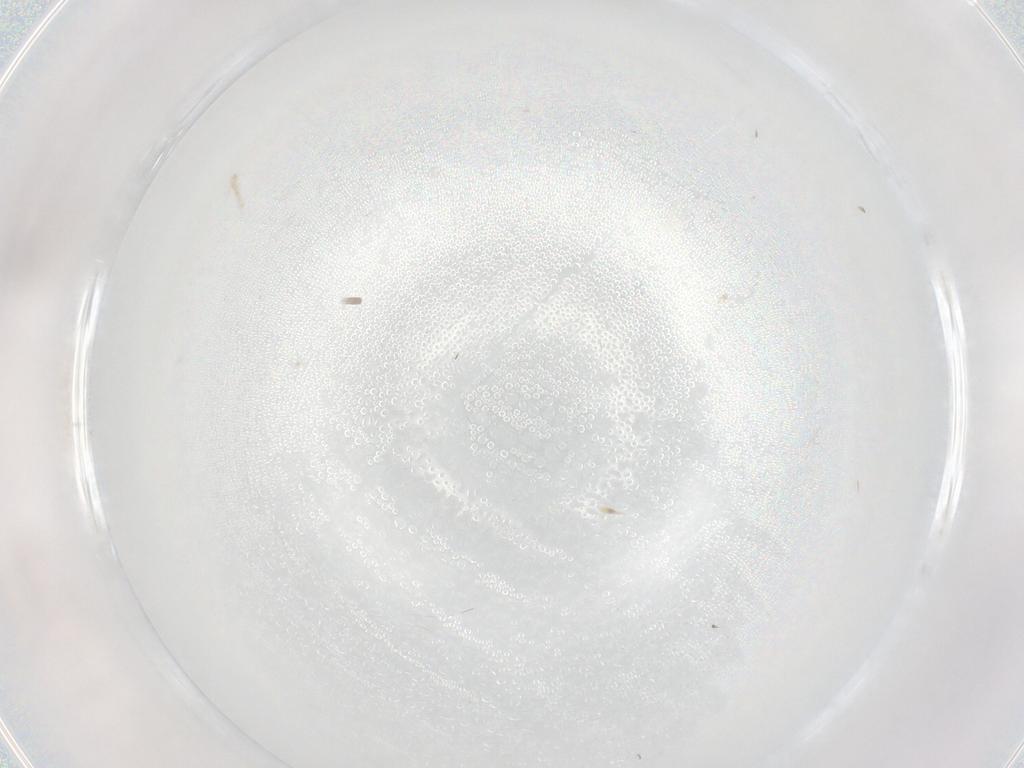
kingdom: Animalia
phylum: Arthropoda
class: Insecta
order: Diptera
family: Cecidomyiidae
